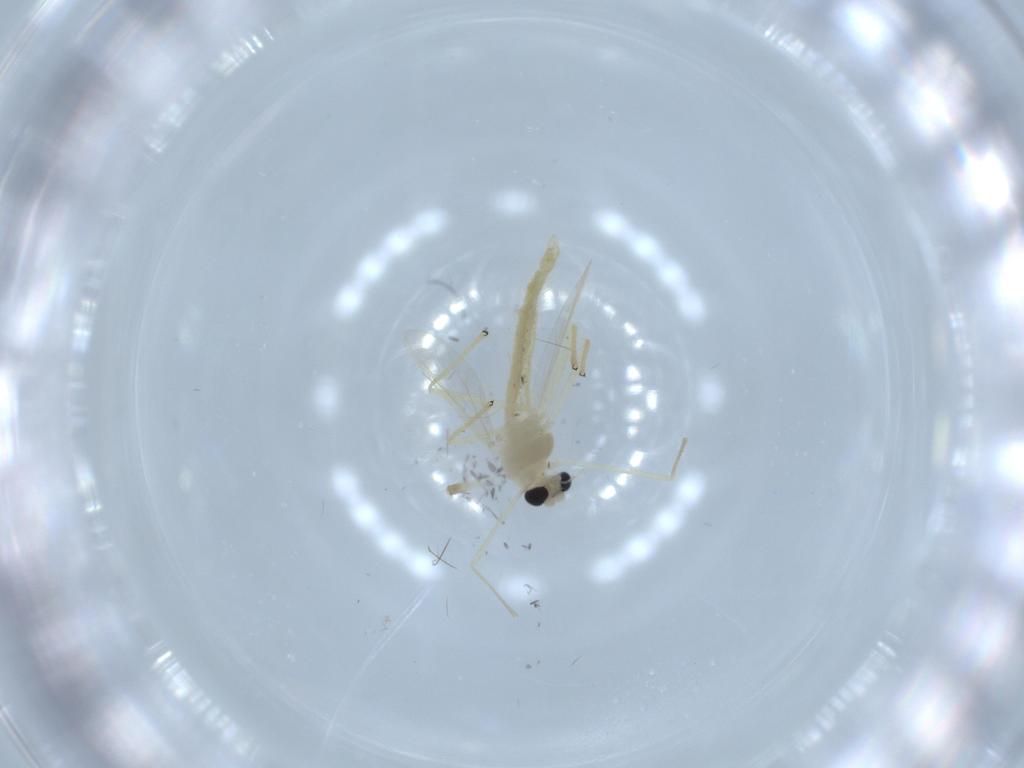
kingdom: Animalia
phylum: Arthropoda
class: Insecta
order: Diptera
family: Chironomidae
